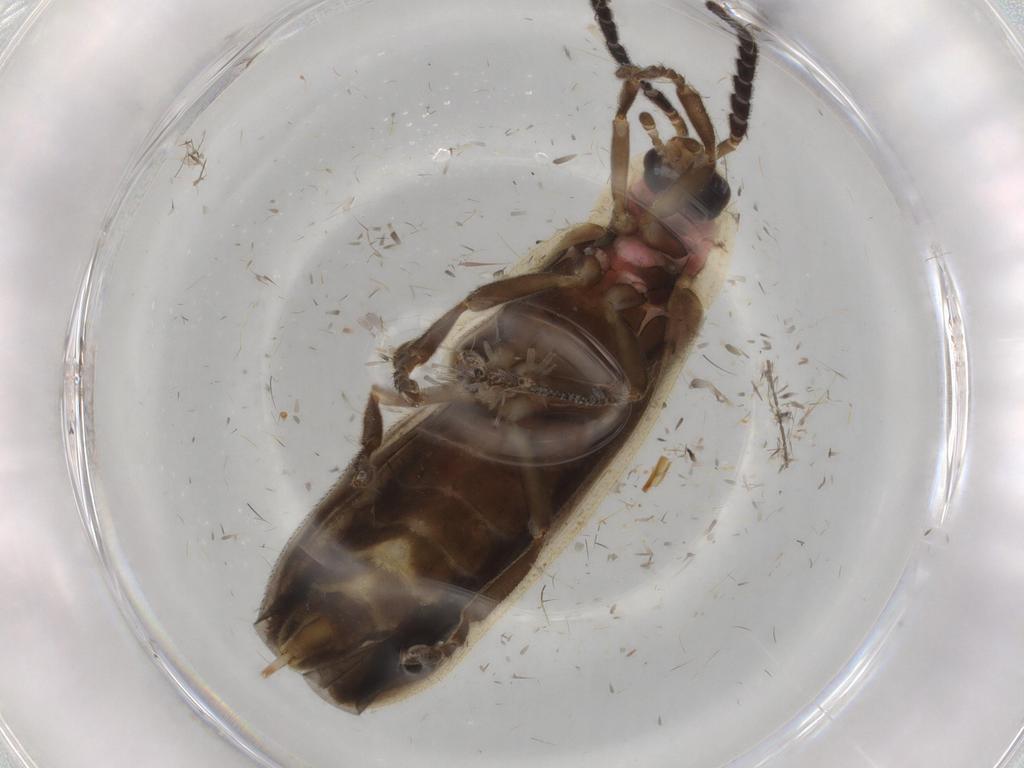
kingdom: Animalia
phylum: Arthropoda
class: Insecta
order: Coleoptera
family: Lampyridae
